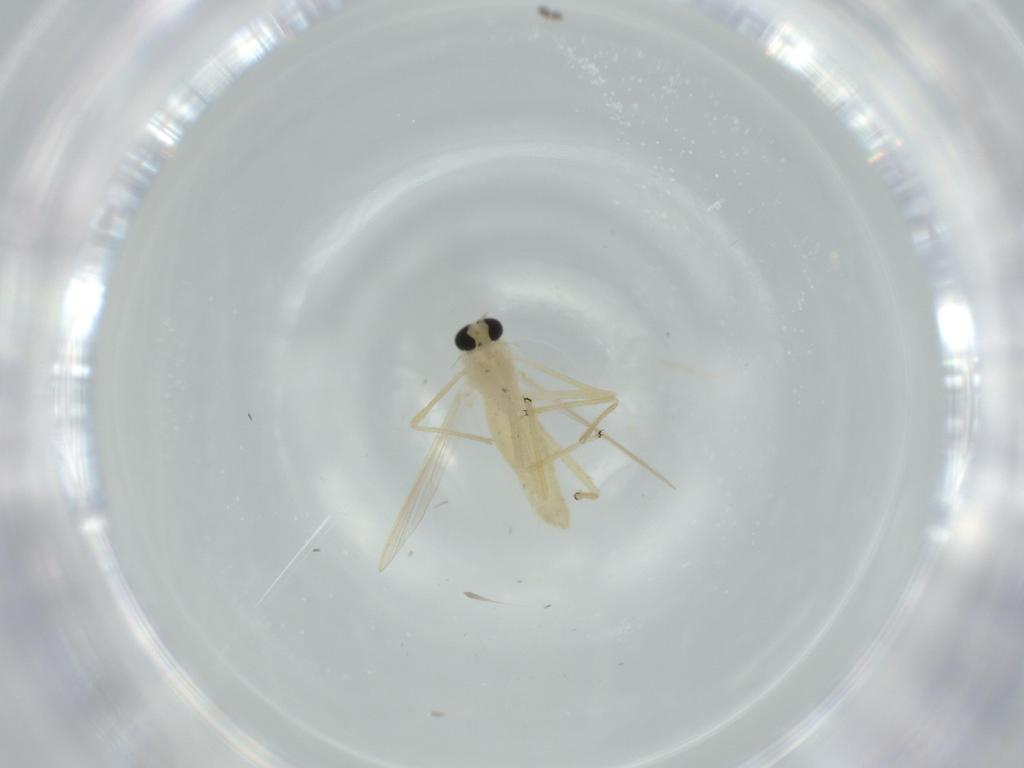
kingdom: Animalia
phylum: Arthropoda
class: Insecta
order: Diptera
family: Chironomidae
